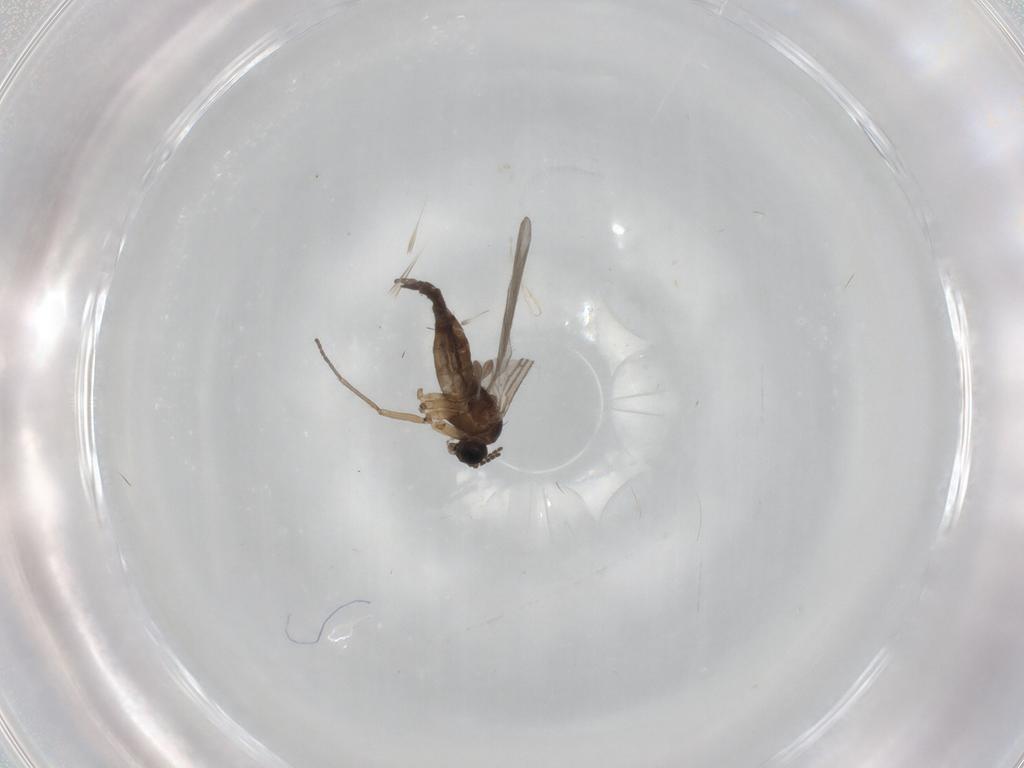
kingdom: Animalia
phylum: Arthropoda
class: Insecta
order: Diptera
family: Sciaridae
